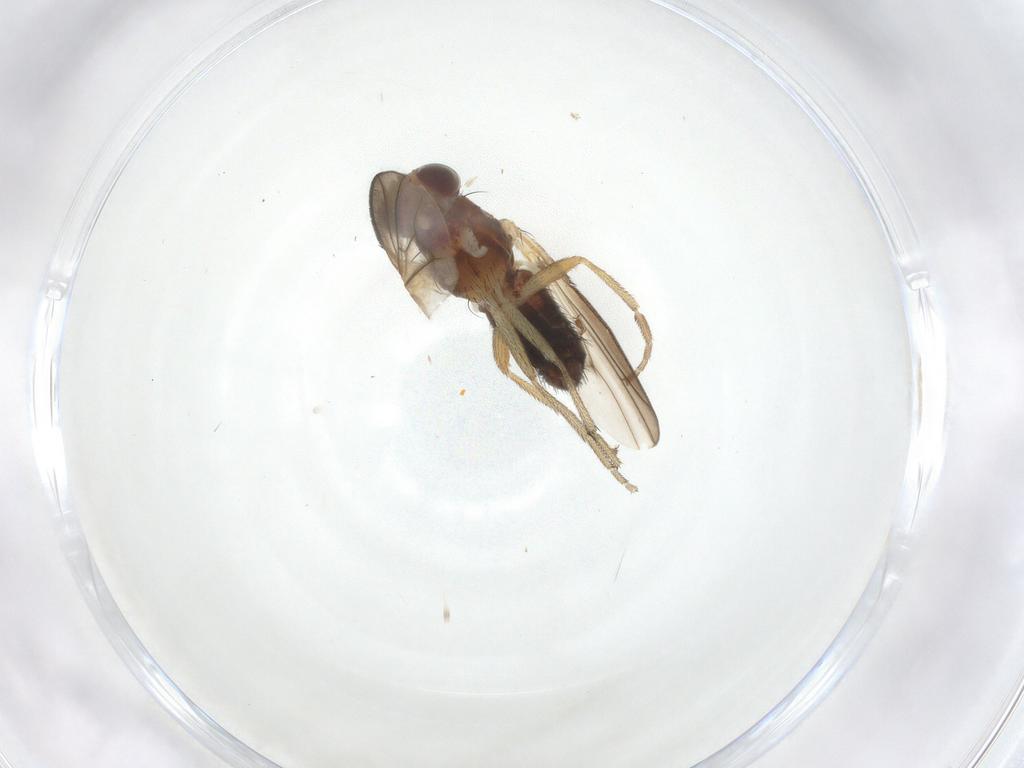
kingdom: Animalia
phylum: Arthropoda
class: Insecta
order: Diptera
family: Heleomyzidae
